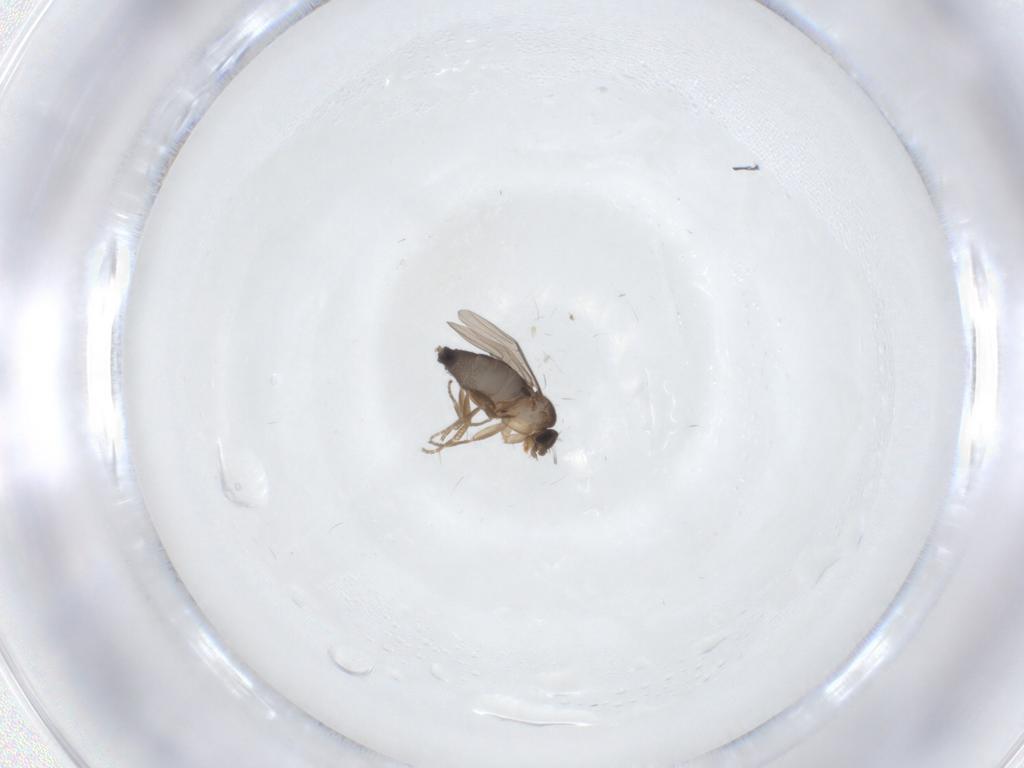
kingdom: Animalia
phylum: Arthropoda
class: Insecta
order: Diptera
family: Phoridae
